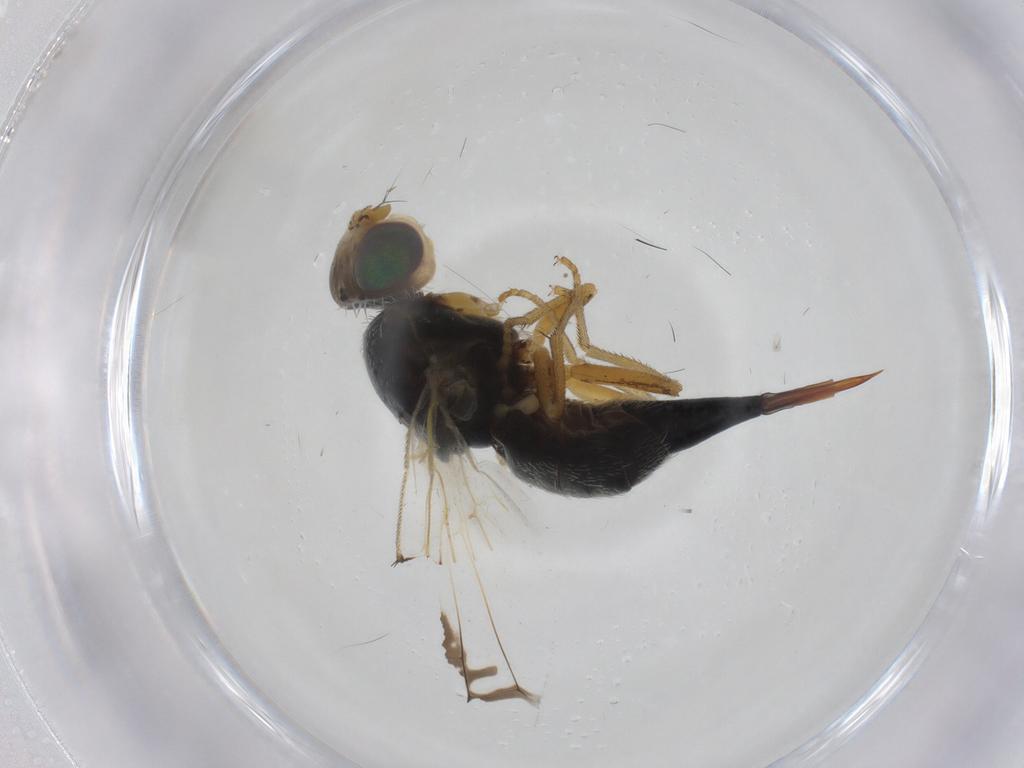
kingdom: Animalia
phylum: Arthropoda
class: Insecta
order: Diptera
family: Tephritidae
